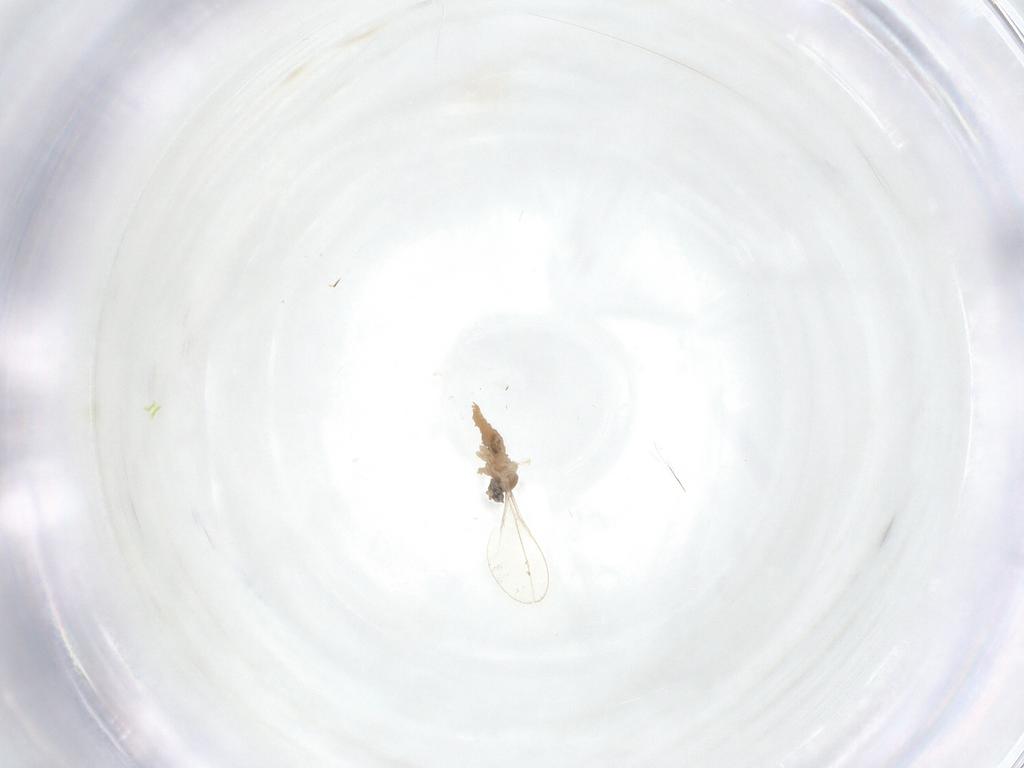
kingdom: Animalia
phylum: Arthropoda
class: Insecta
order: Diptera
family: Cecidomyiidae
